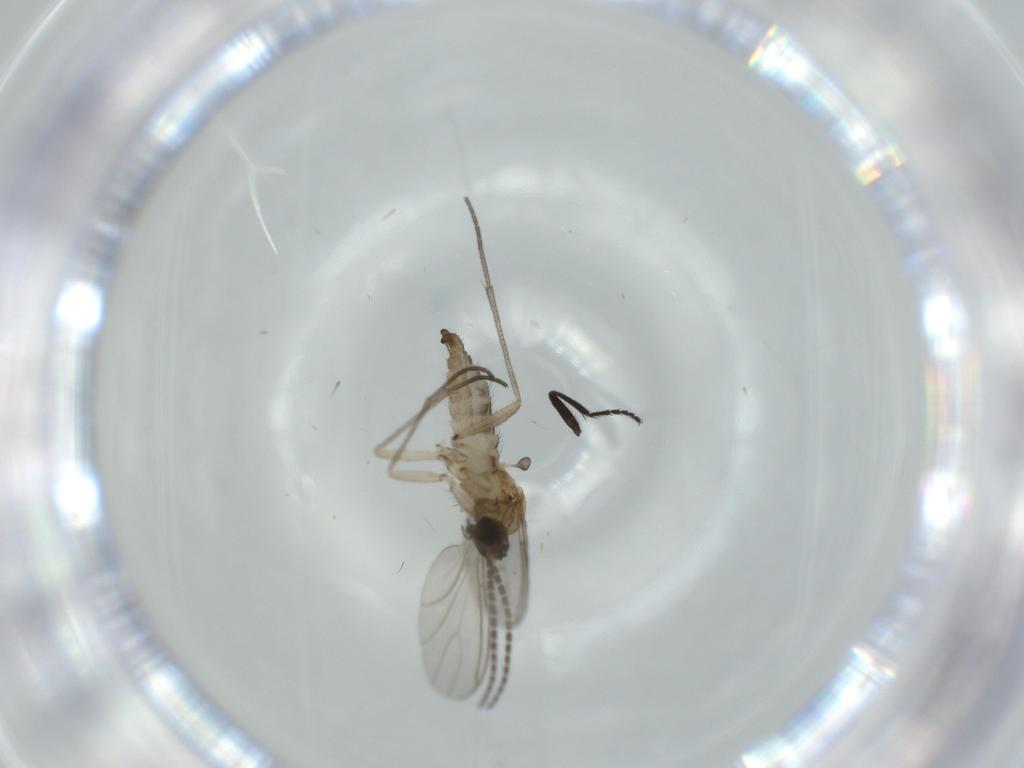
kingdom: Animalia
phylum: Arthropoda
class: Insecta
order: Diptera
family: Sciaridae
